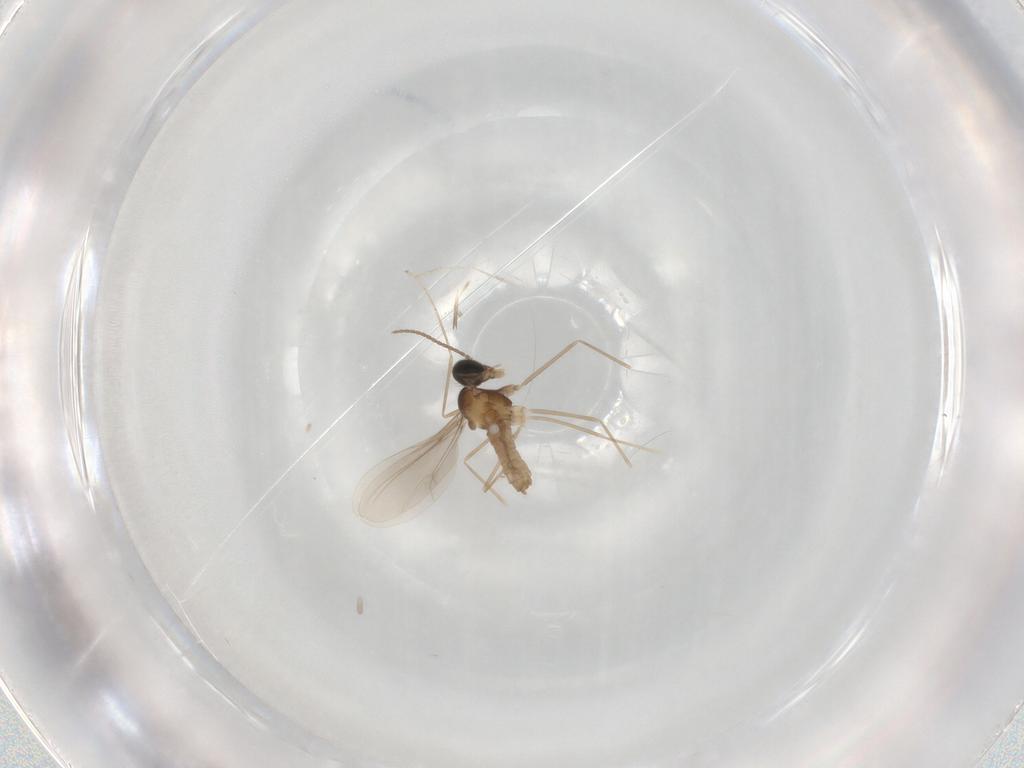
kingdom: Animalia
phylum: Arthropoda
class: Insecta
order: Diptera
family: Cecidomyiidae
